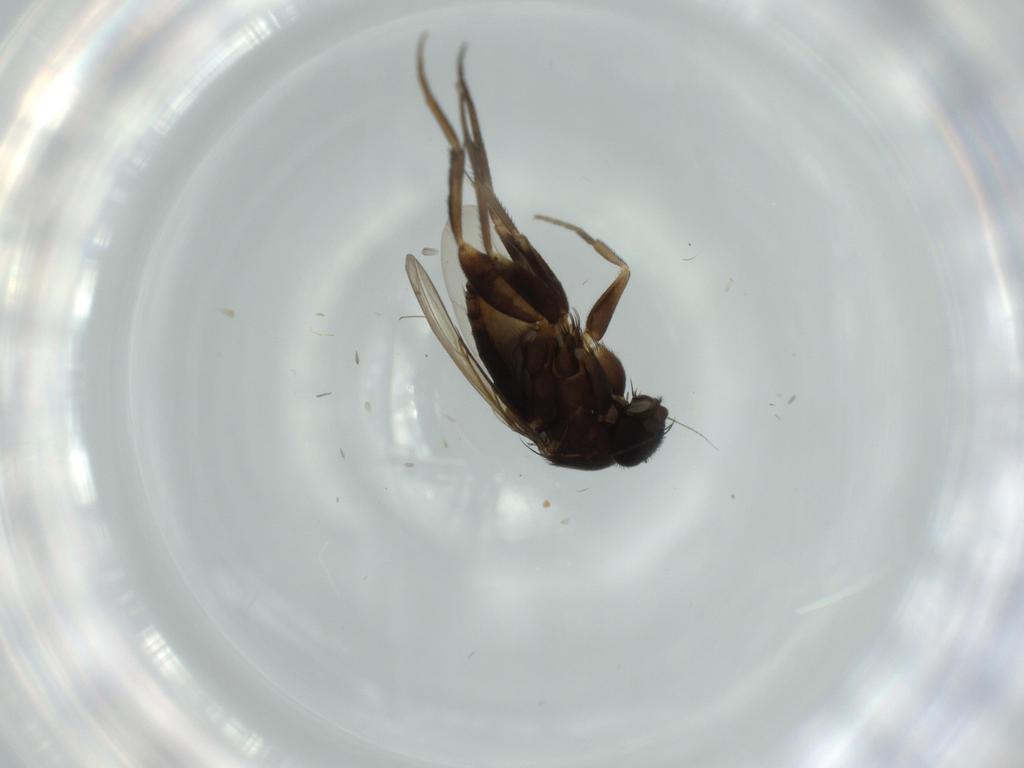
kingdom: Animalia
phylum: Arthropoda
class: Insecta
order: Diptera
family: Phoridae
